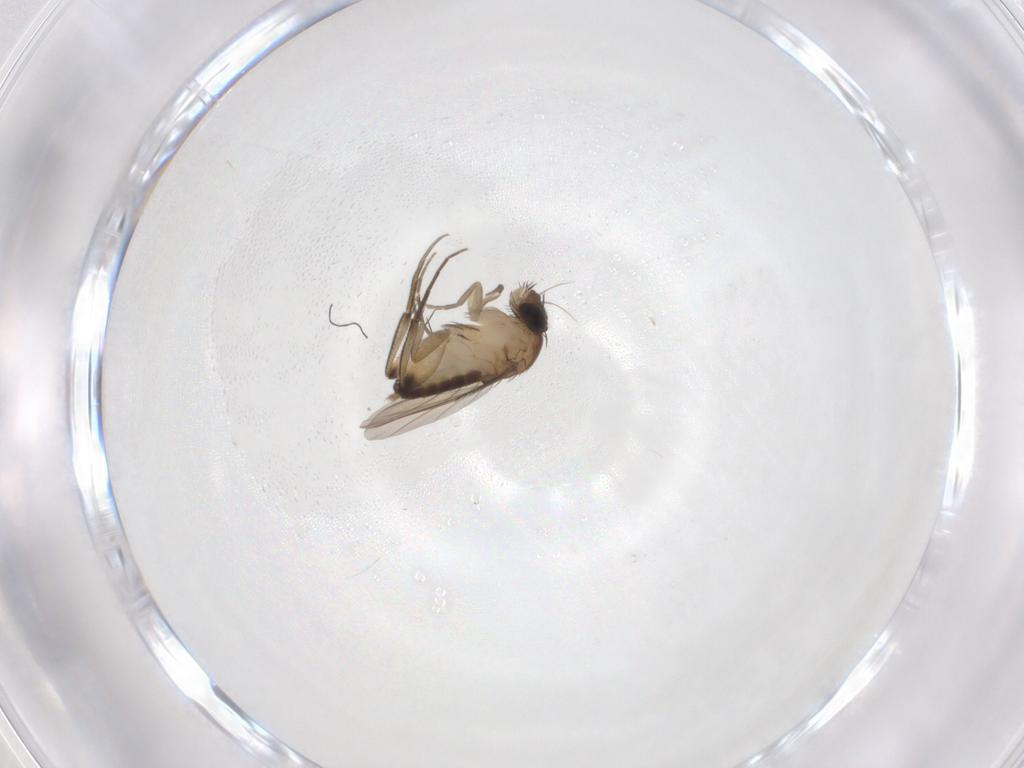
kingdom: Animalia
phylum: Arthropoda
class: Insecta
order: Diptera
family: Phoridae
